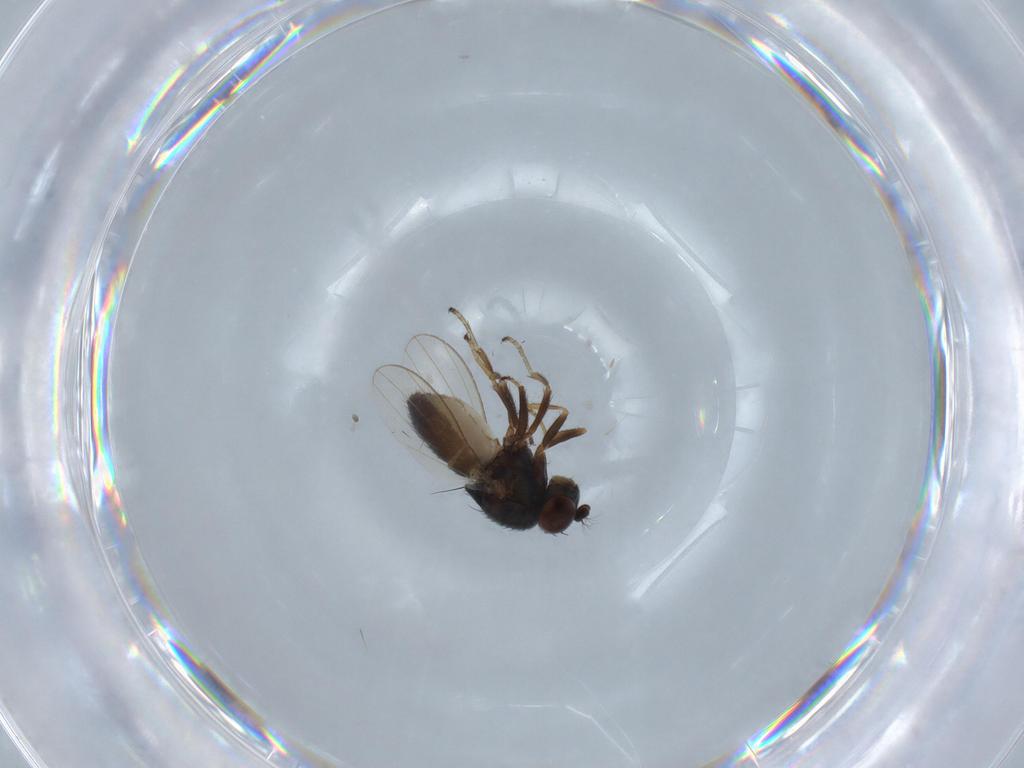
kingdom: Animalia
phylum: Arthropoda
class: Insecta
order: Diptera
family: Ephydridae
